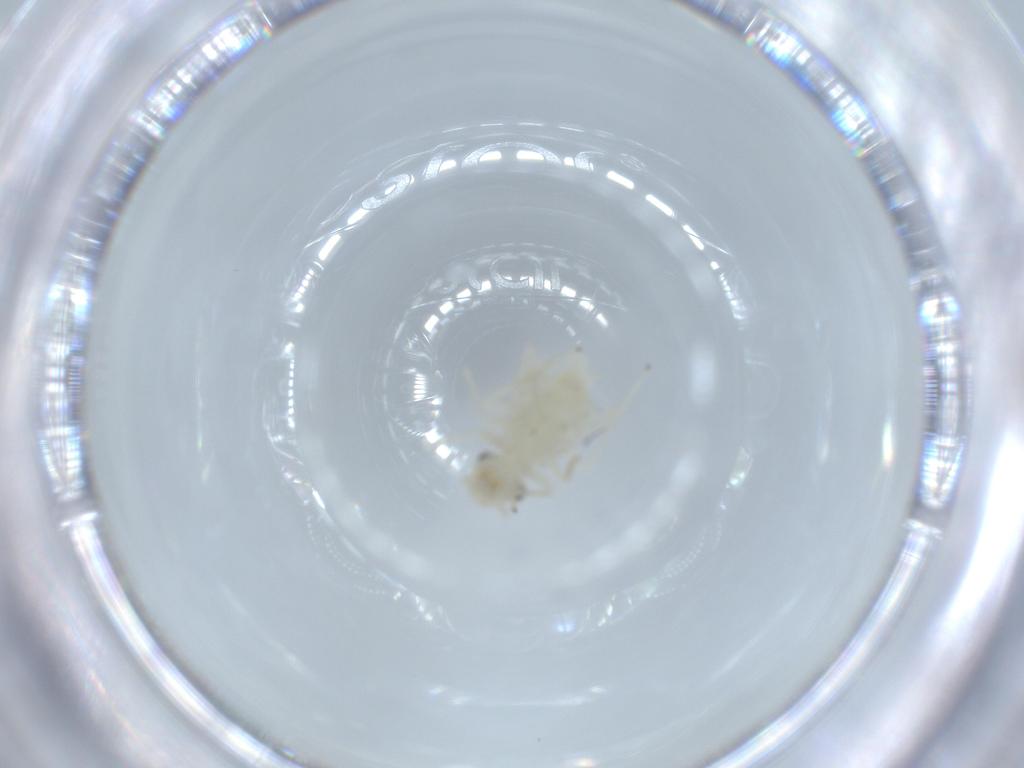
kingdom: Animalia
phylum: Arthropoda
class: Insecta
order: Psocodea
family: Caeciliusidae
